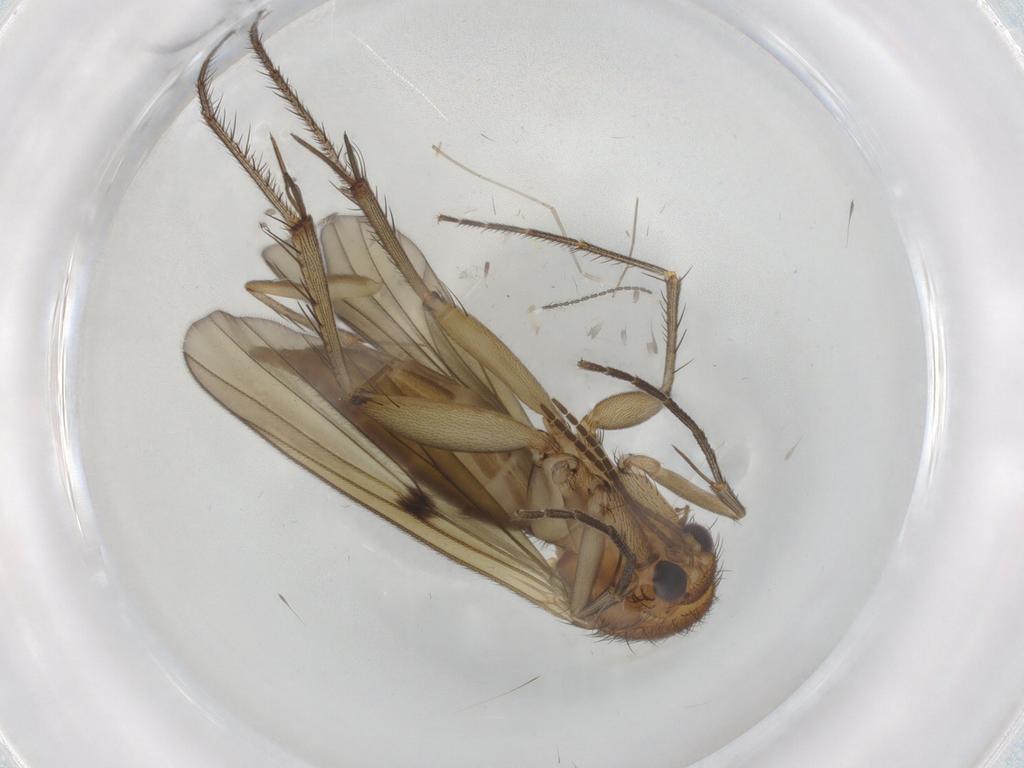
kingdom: Animalia
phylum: Arthropoda
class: Insecta
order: Diptera
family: Mycetophilidae
